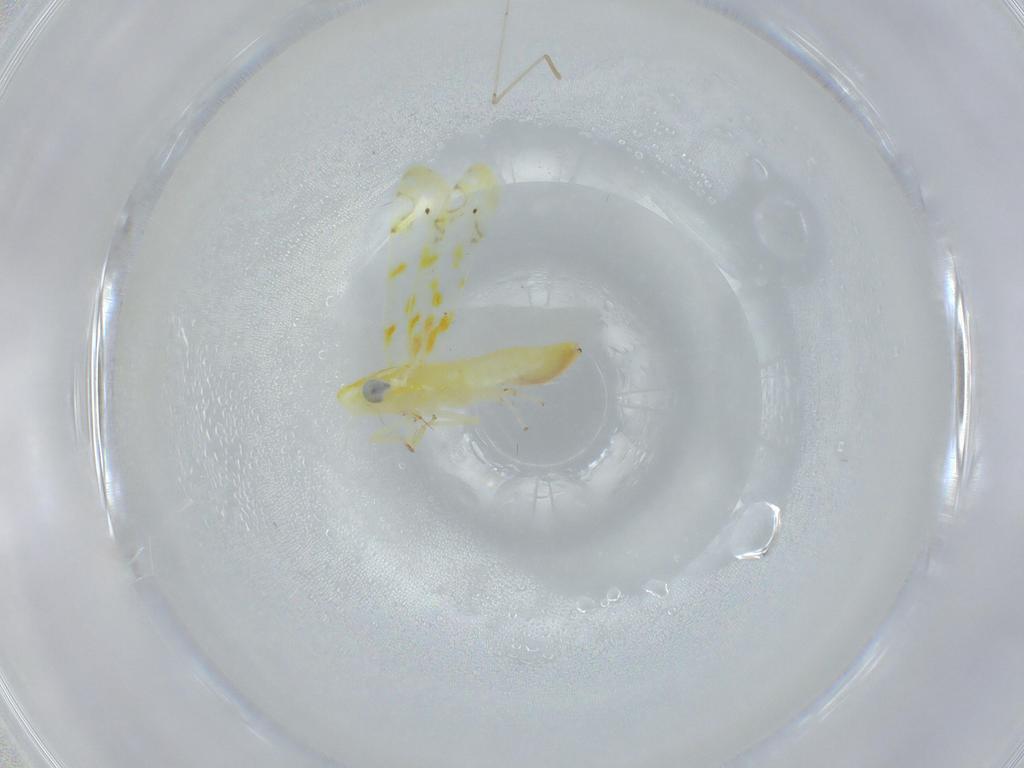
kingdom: Animalia
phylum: Arthropoda
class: Insecta
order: Hemiptera
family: Cicadellidae
